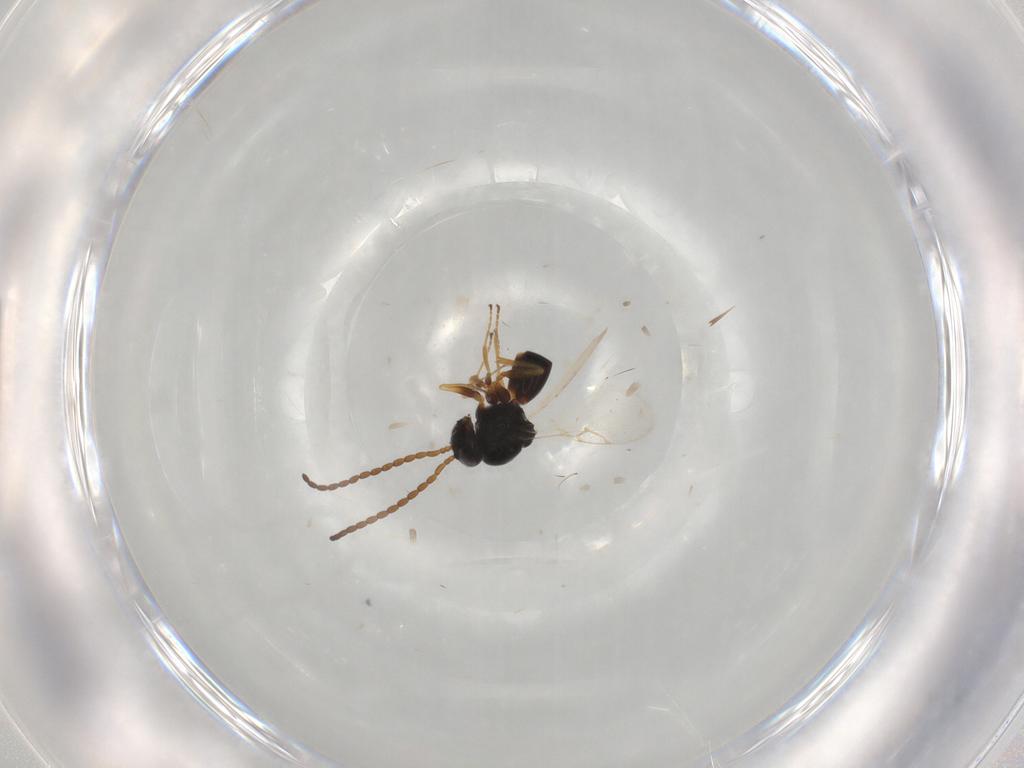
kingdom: Animalia
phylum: Arthropoda
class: Insecta
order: Hymenoptera
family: Figitidae
